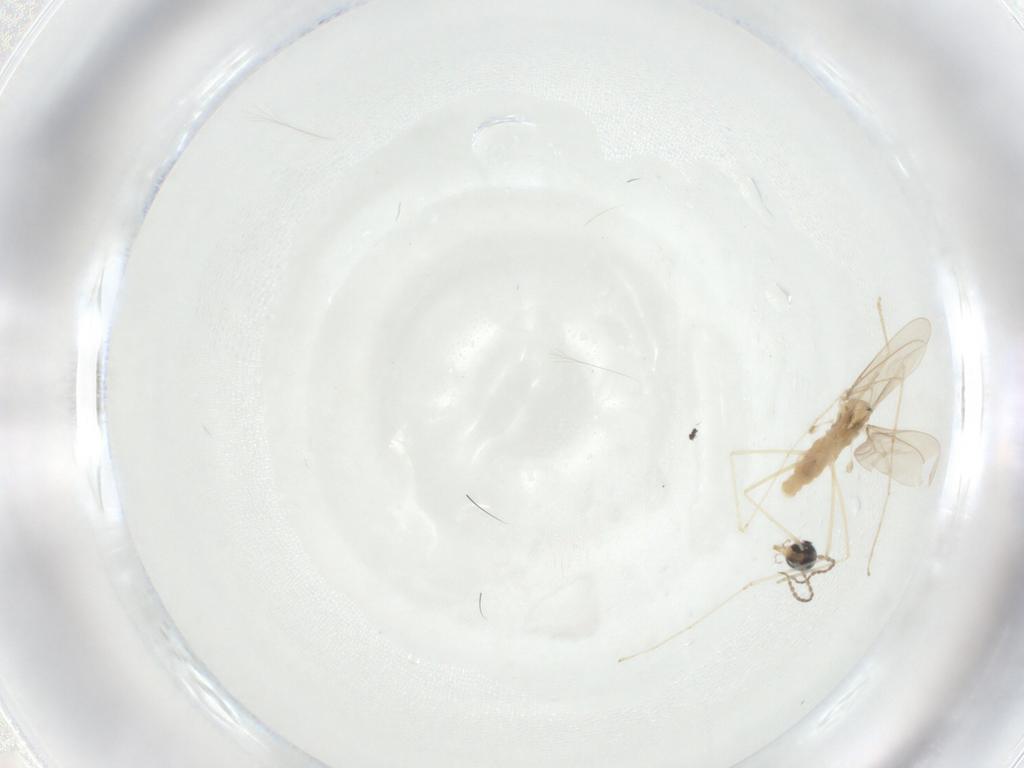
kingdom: Animalia
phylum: Arthropoda
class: Insecta
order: Diptera
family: Cecidomyiidae
